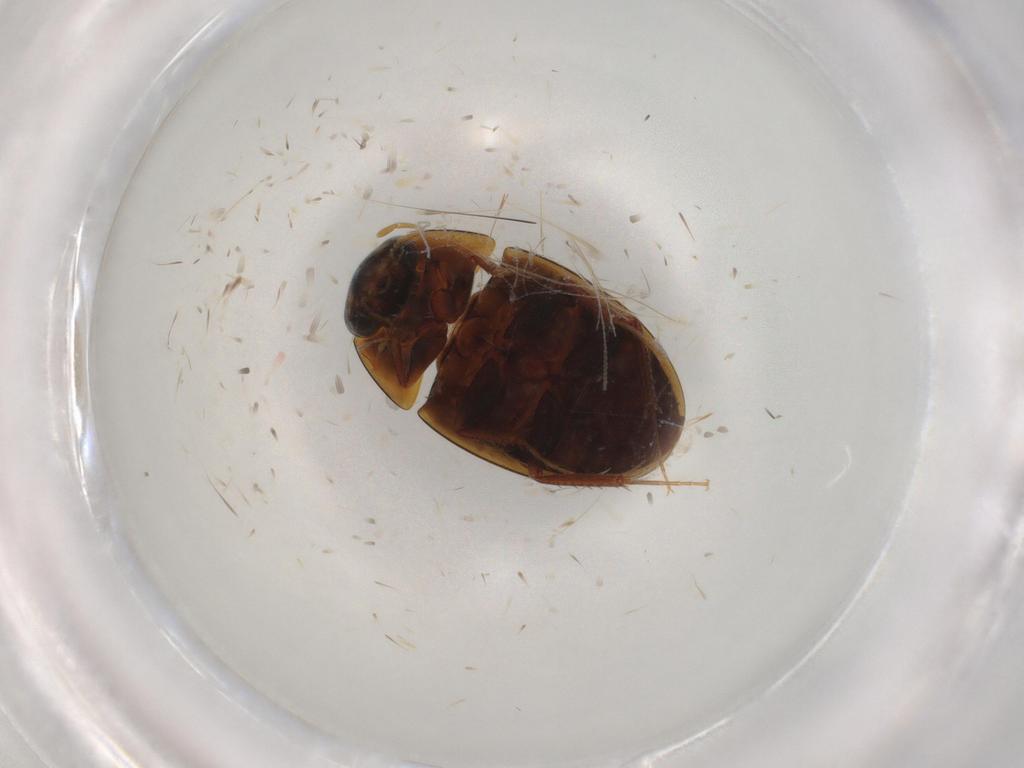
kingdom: Animalia
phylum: Arthropoda
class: Insecta
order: Coleoptera
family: Hydrophilidae
